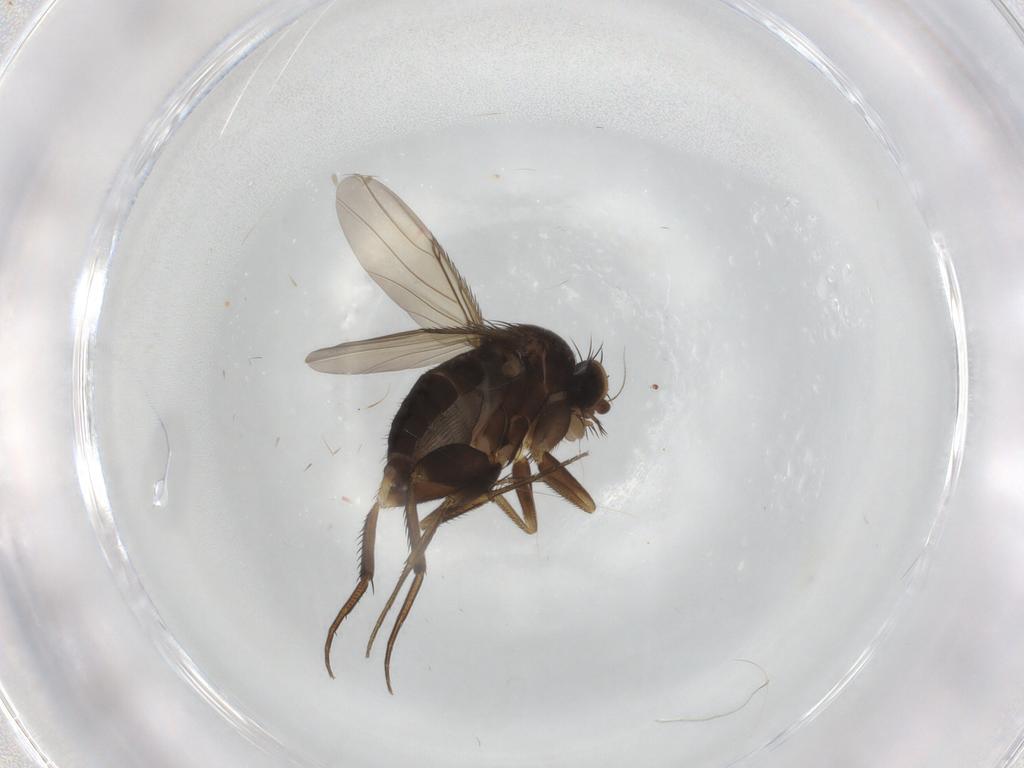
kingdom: Animalia
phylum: Arthropoda
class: Insecta
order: Diptera
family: Phoridae
